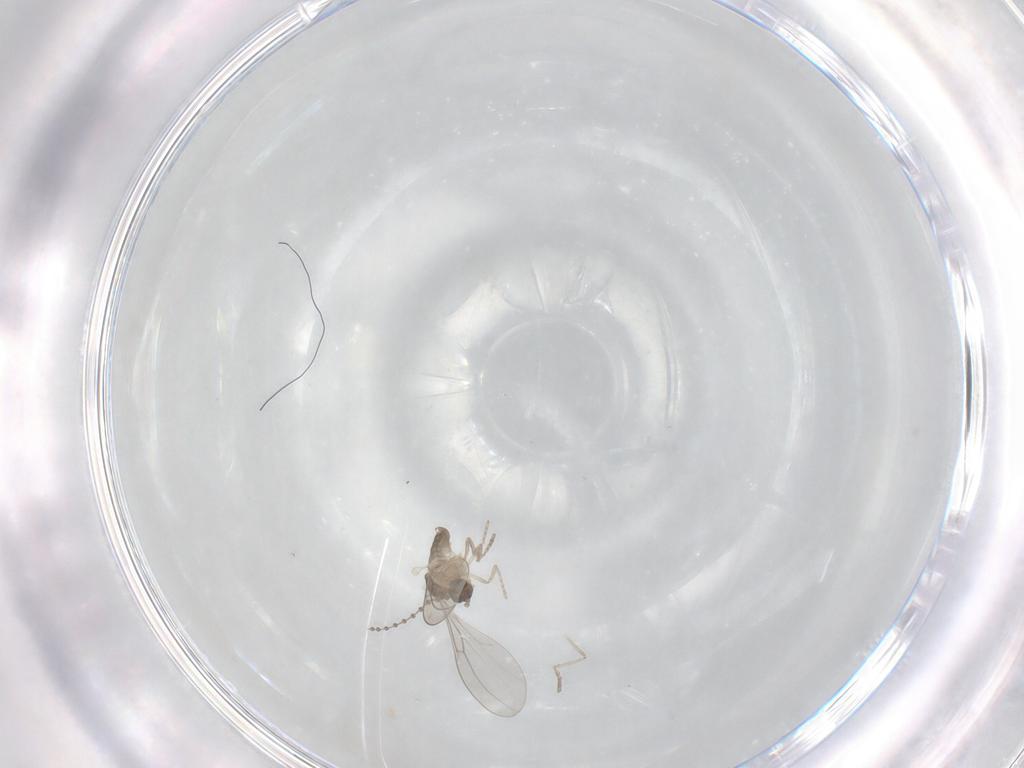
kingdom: Animalia
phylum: Arthropoda
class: Insecta
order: Diptera
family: Cecidomyiidae
